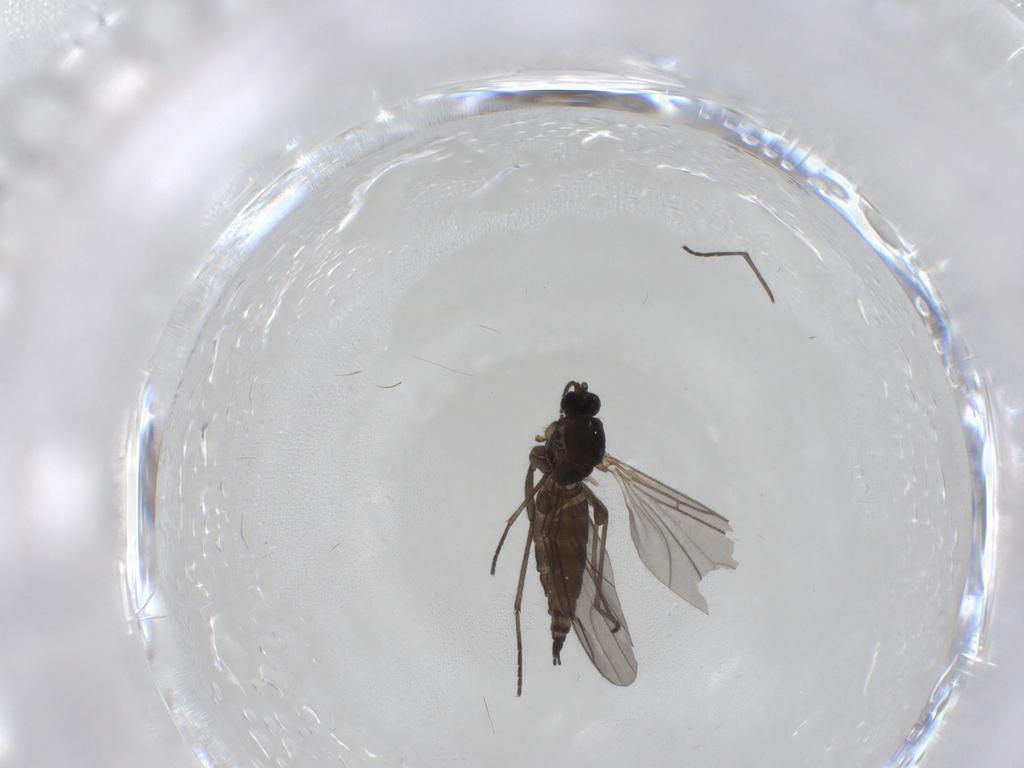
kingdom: Animalia
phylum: Arthropoda
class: Insecta
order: Diptera
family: Sciaridae
